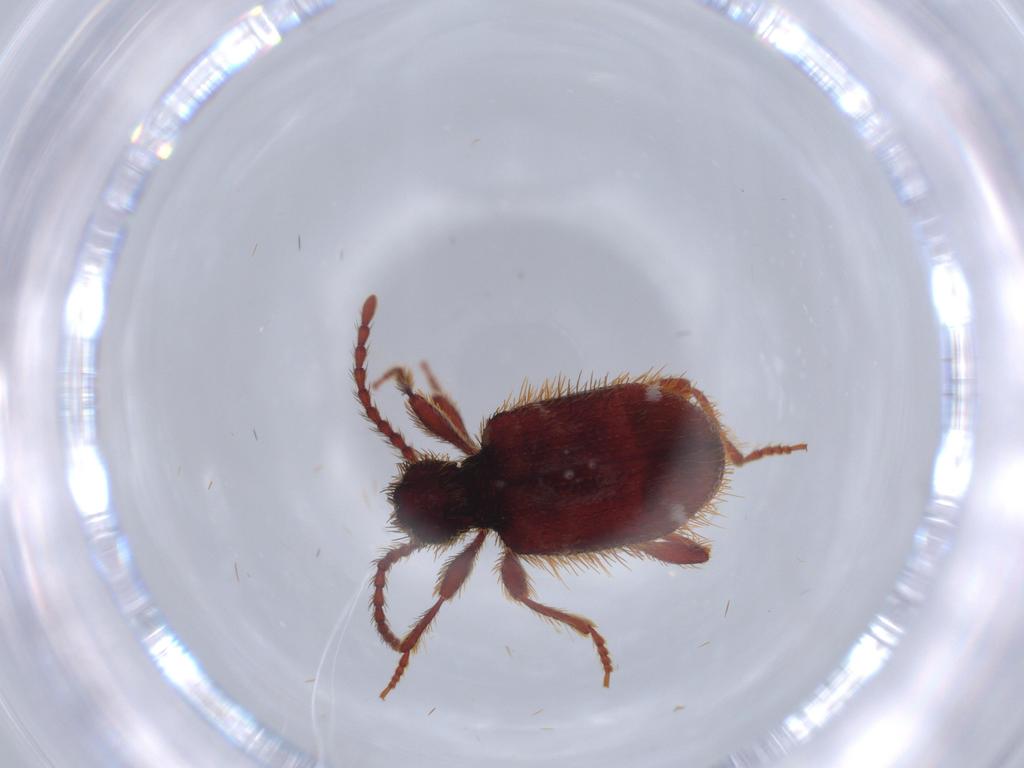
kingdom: Animalia
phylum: Arthropoda
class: Insecta
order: Coleoptera
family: Ptinidae
